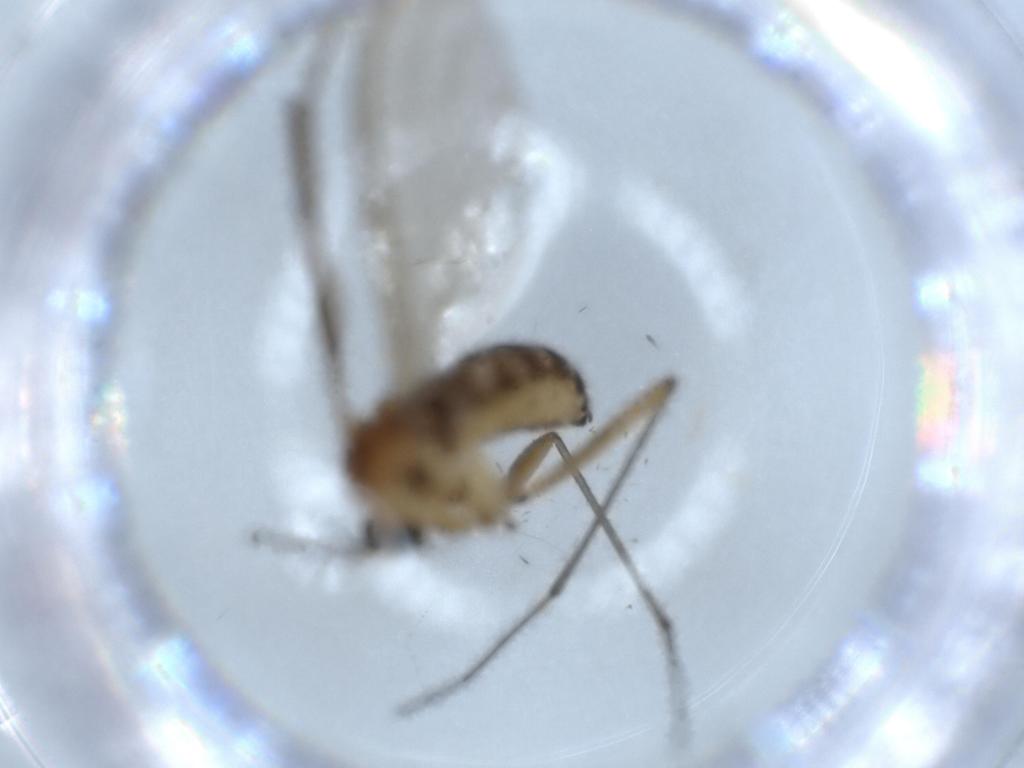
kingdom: Animalia
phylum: Arthropoda
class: Insecta
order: Diptera
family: Sciaridae
